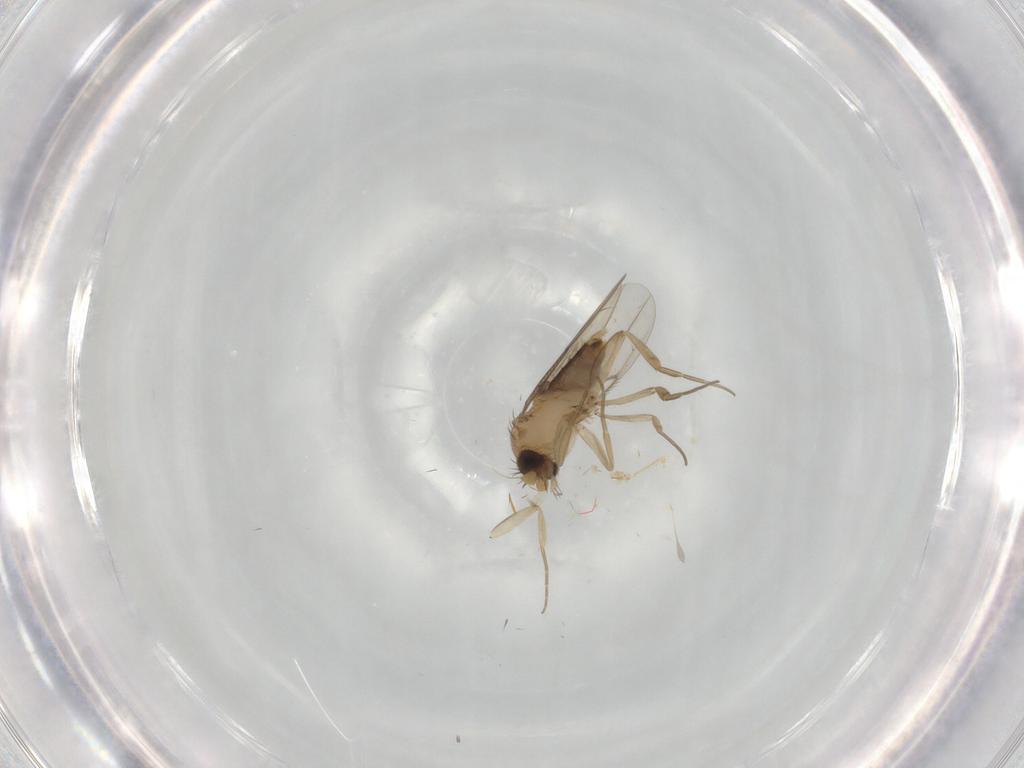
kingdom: Animalia
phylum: Arthropoda
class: Insecta
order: Diptera
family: Phoridae
